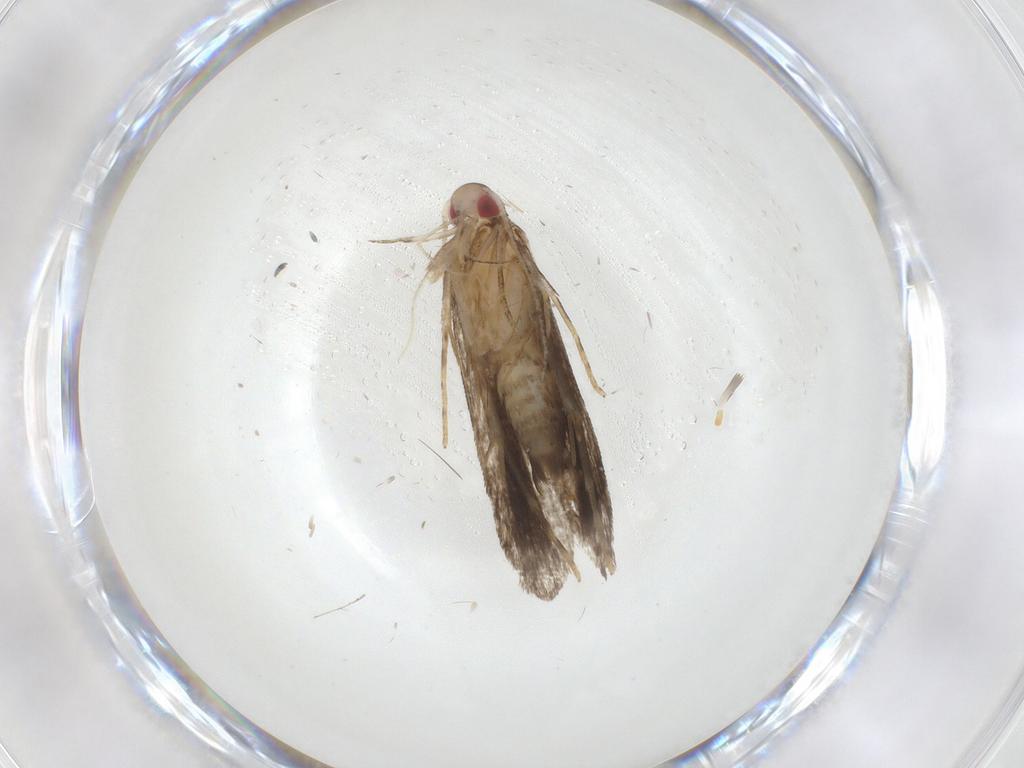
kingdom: Animalia
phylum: Arthropoda
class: Insecta
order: Lepidoptera
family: Gelechiidae
